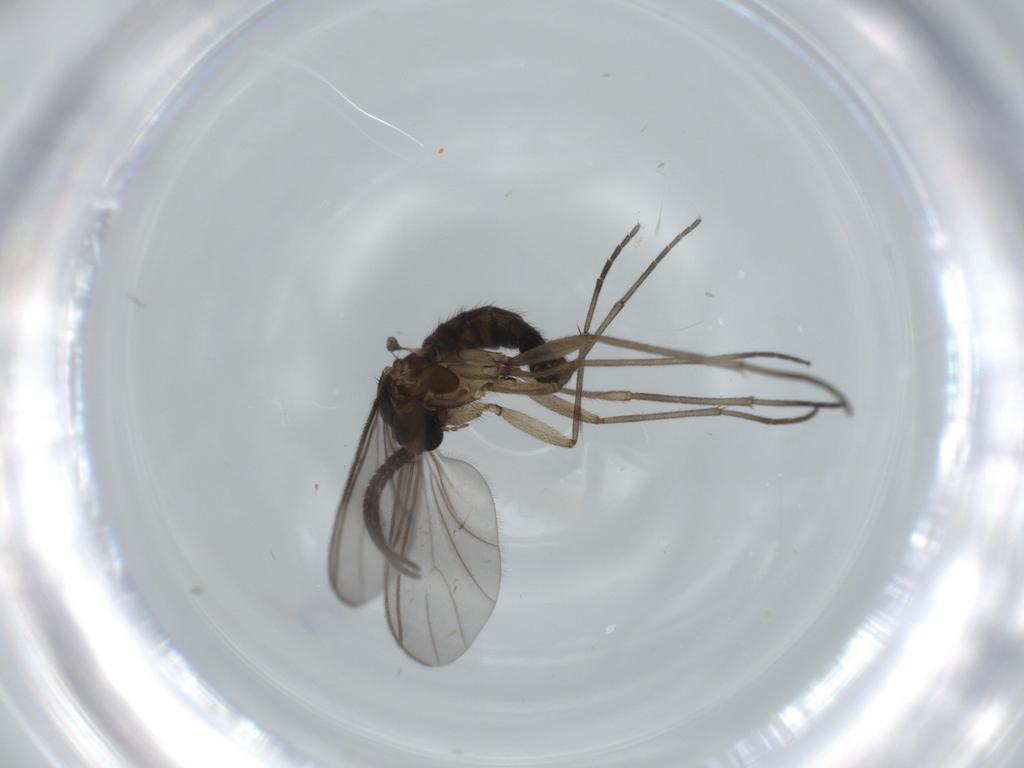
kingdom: Animalia
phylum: Arthropoda
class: Insecta
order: Diptera
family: Sciaridae
